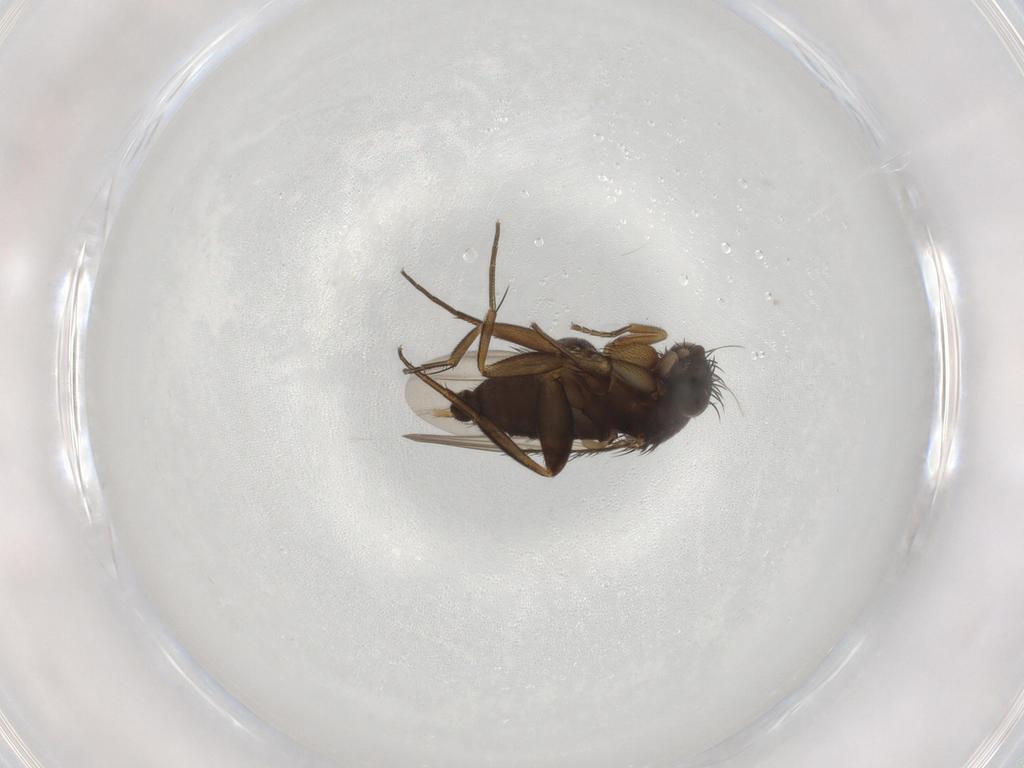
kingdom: Animalia
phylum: Arthropoda
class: Insecta
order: Diptera
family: Phoridae
